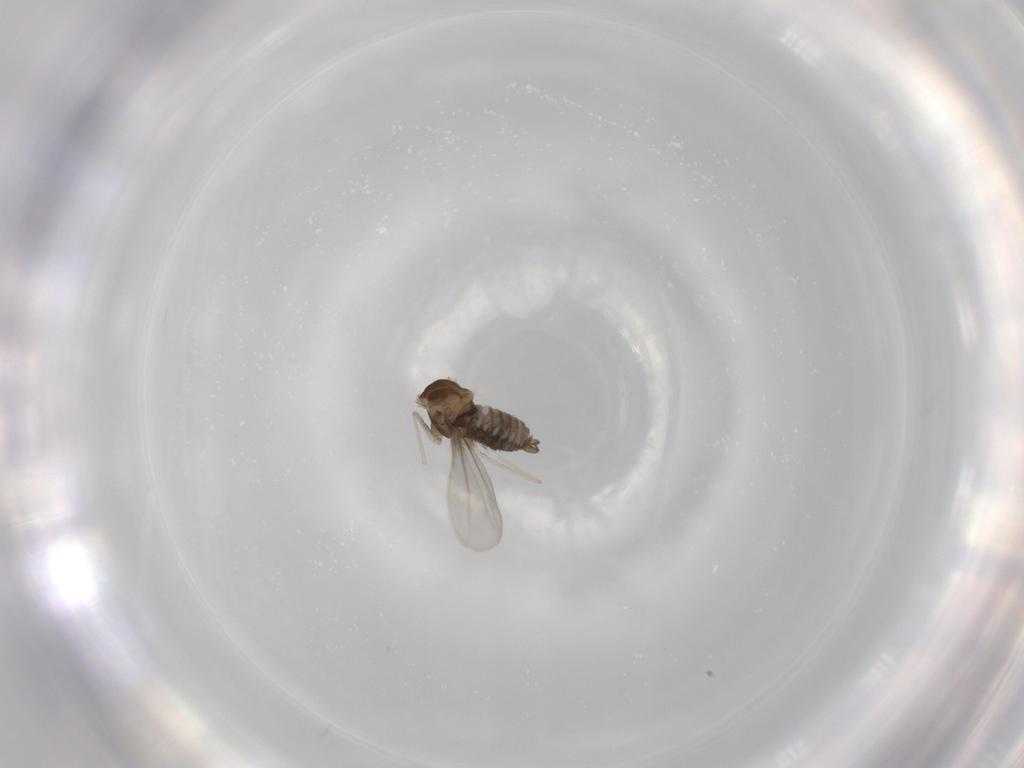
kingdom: Animalia
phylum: Arthropoda
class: Insecta
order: Diptera
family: Cecidomyiidae
